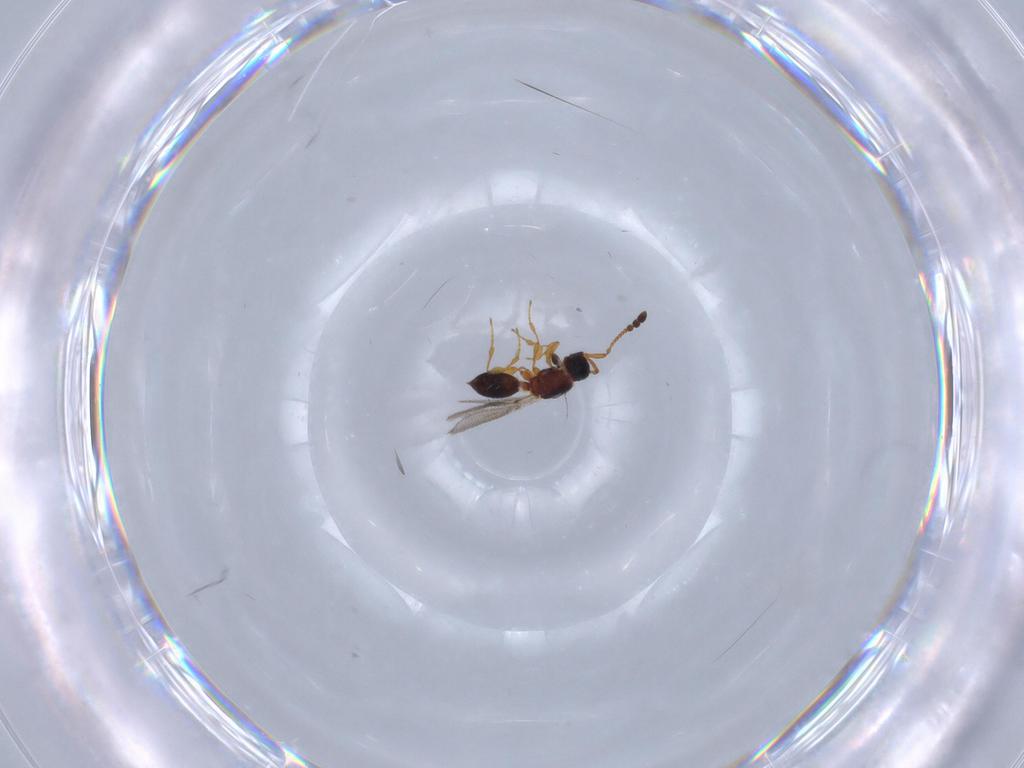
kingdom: Animalia
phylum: Arthropoda
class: Insecta
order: Hymenoptera
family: Diapriidae
